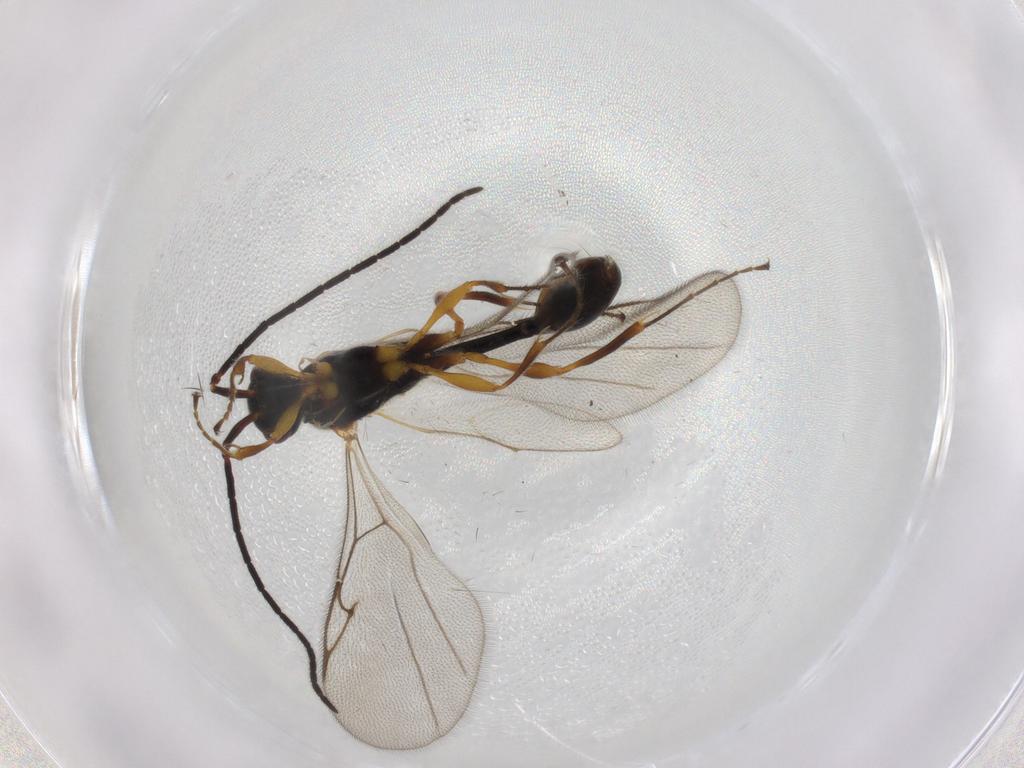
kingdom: Animalia
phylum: Arthropoda
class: Insecta
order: Hymenoptera
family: Diapriidae
